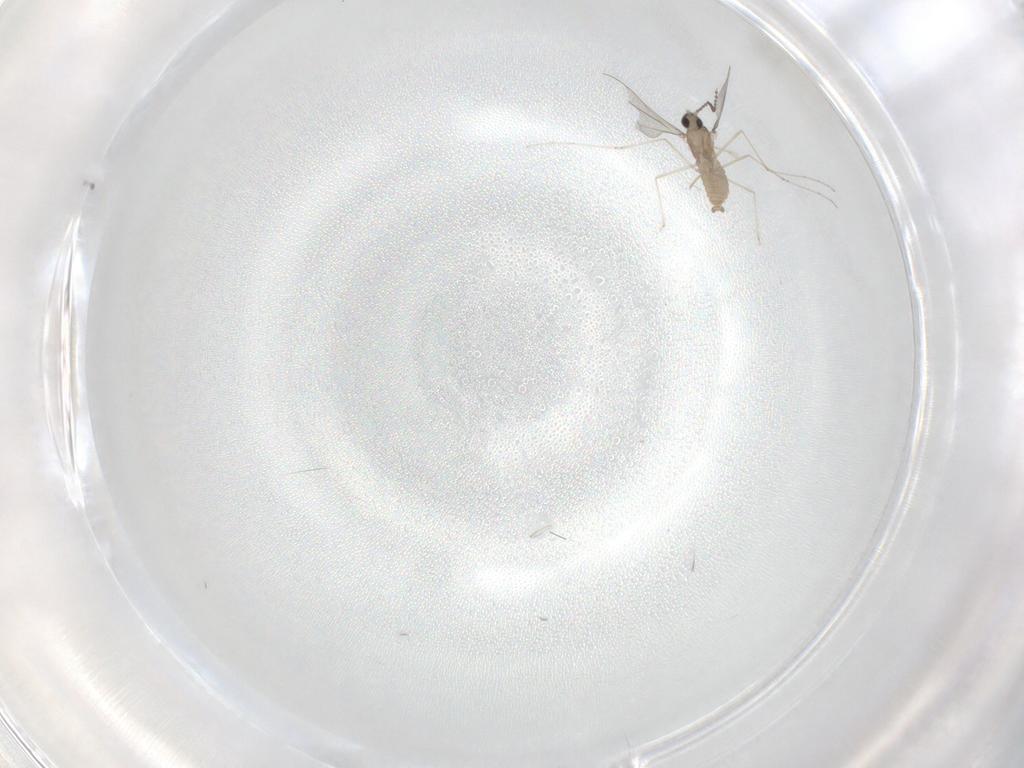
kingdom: Animalia
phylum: Arthropoda
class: Insecta
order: Diptera
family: Cecidomyiidae
